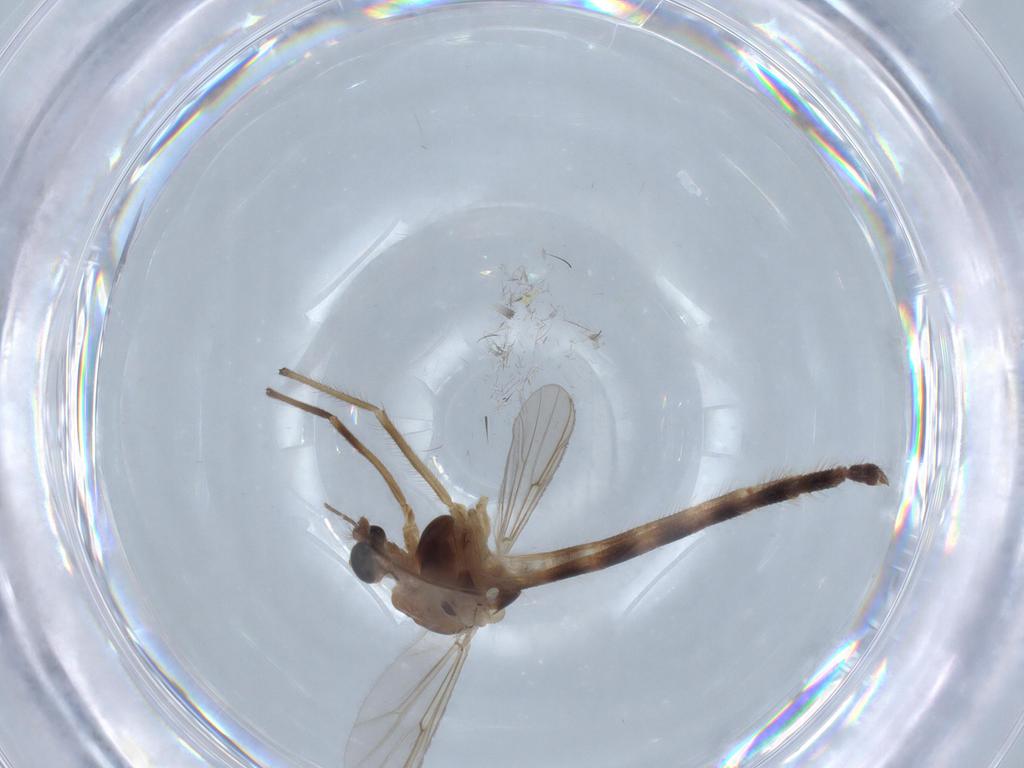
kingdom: Animalia
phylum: Arthropoda
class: Insecta
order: Diptera
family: Chironomidae
